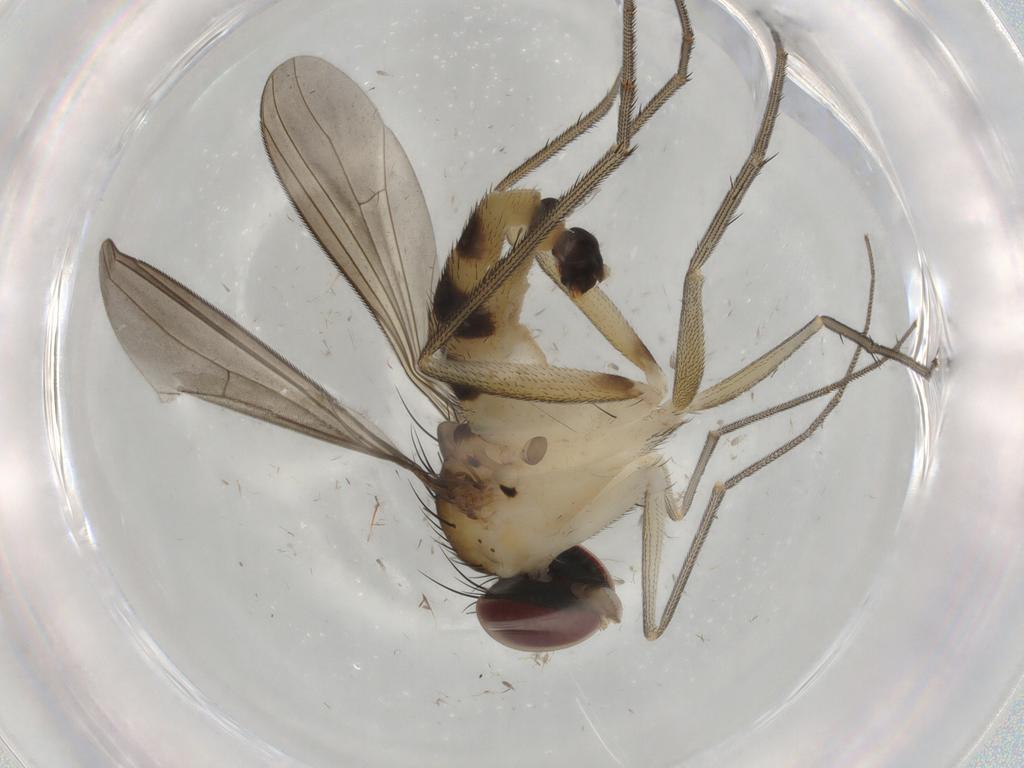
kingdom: Animalia
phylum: Arthropoda
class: Insecta
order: Diptera
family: Dolichopodidae
